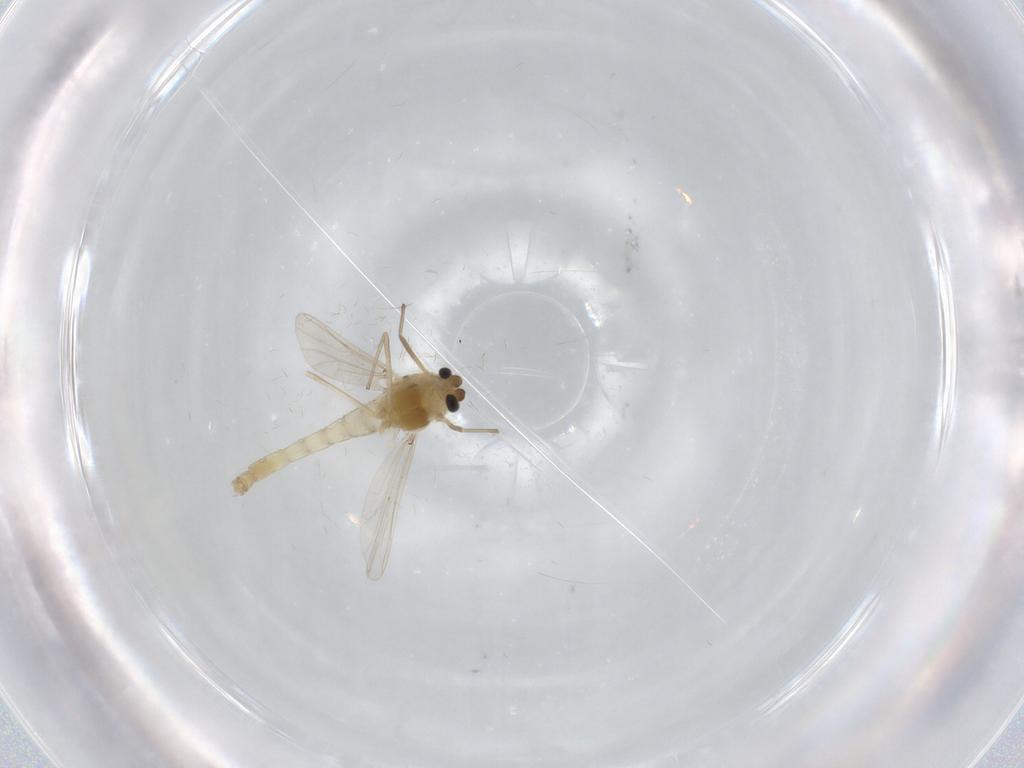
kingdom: Animalia
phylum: Arthropoda
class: Insecta
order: Diptera
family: Chironomidae
